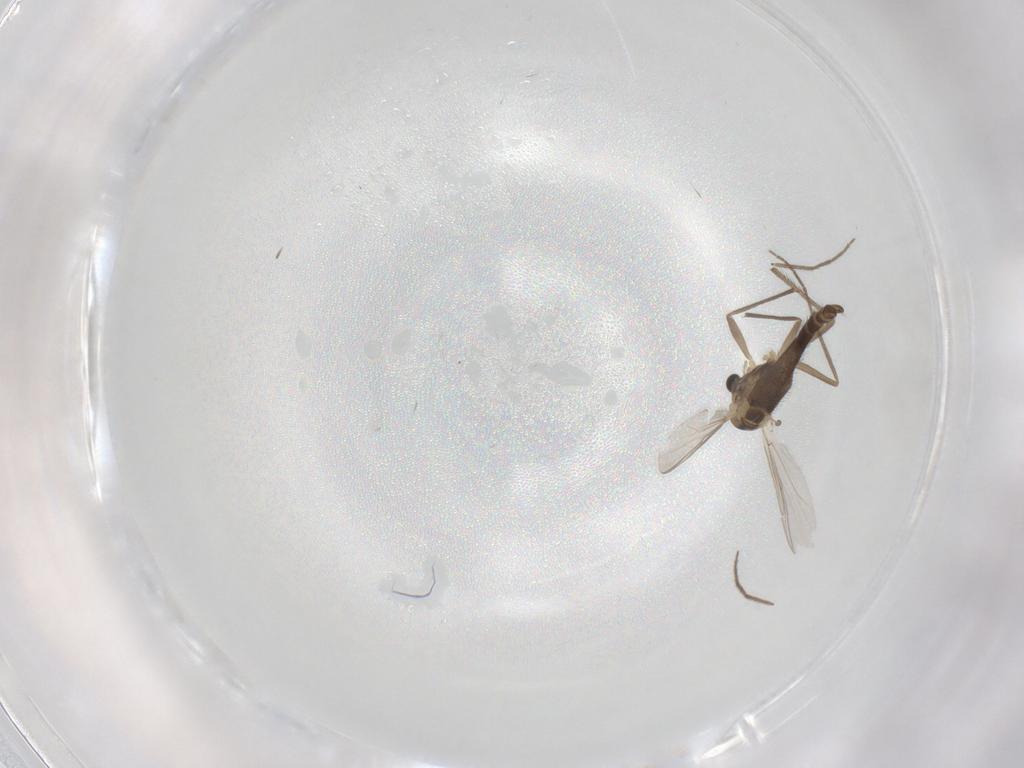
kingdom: Animalia
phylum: Arthropoda
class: Insecta
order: Diptera
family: Chironomidae
